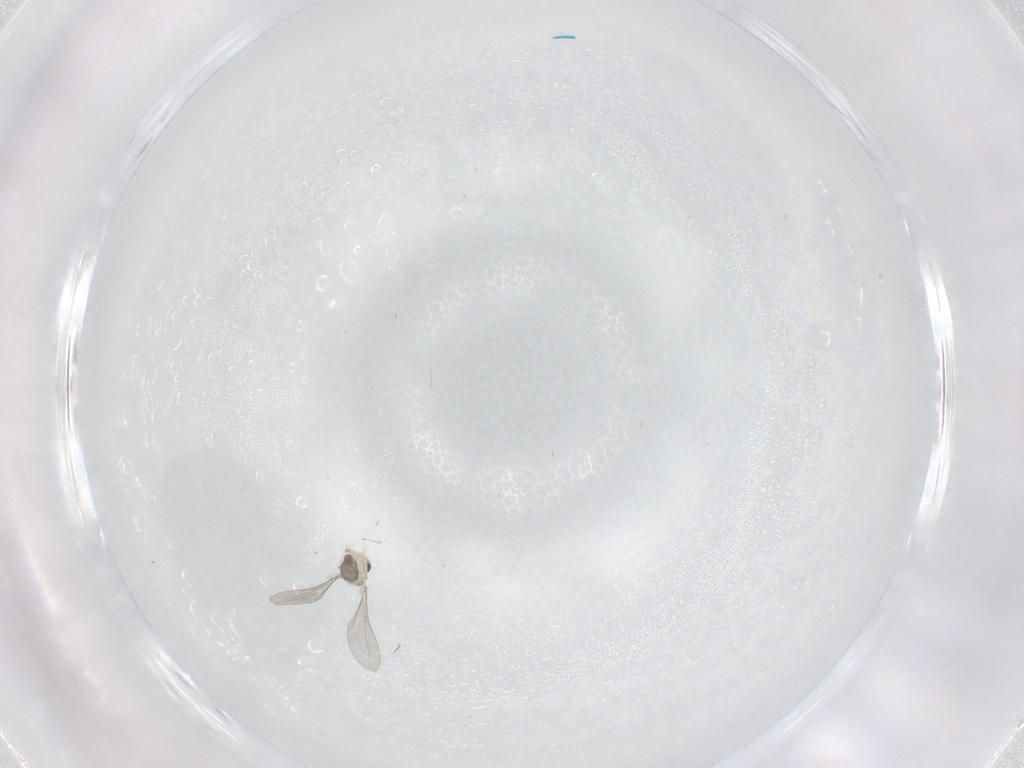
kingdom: Animalia
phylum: Arthropoda
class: Insecta
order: Diptera
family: Cecidomyiidae
